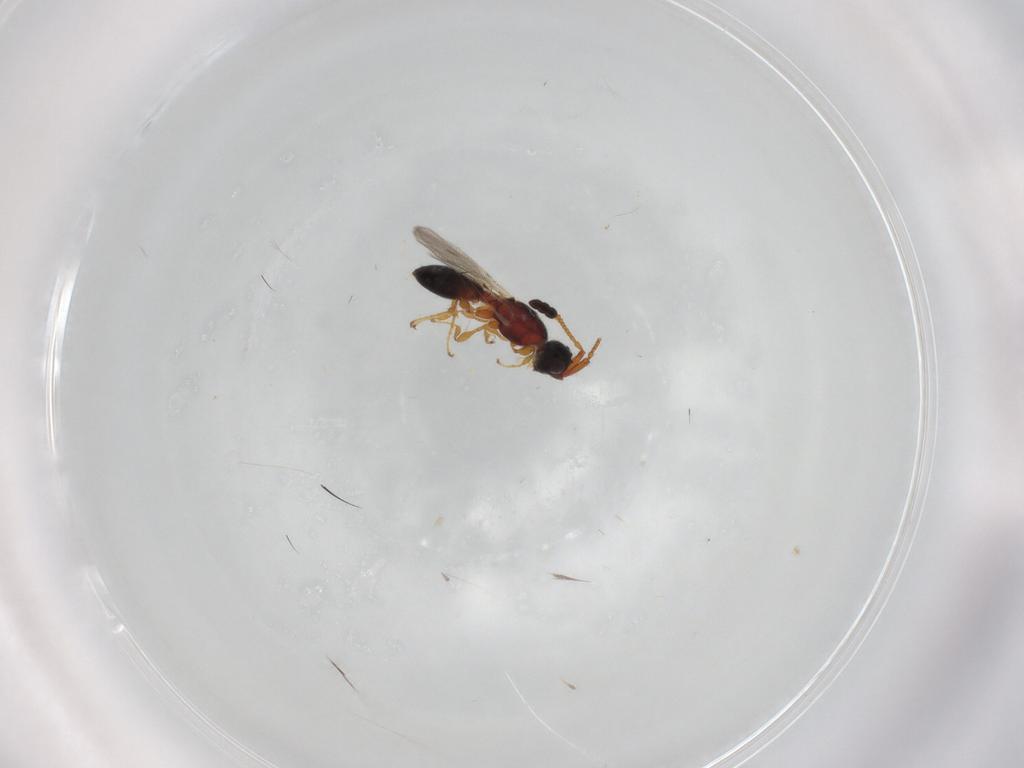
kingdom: Animalia
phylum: Arthropoda
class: Insecta
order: Hymenoptera
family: Diapriidae
